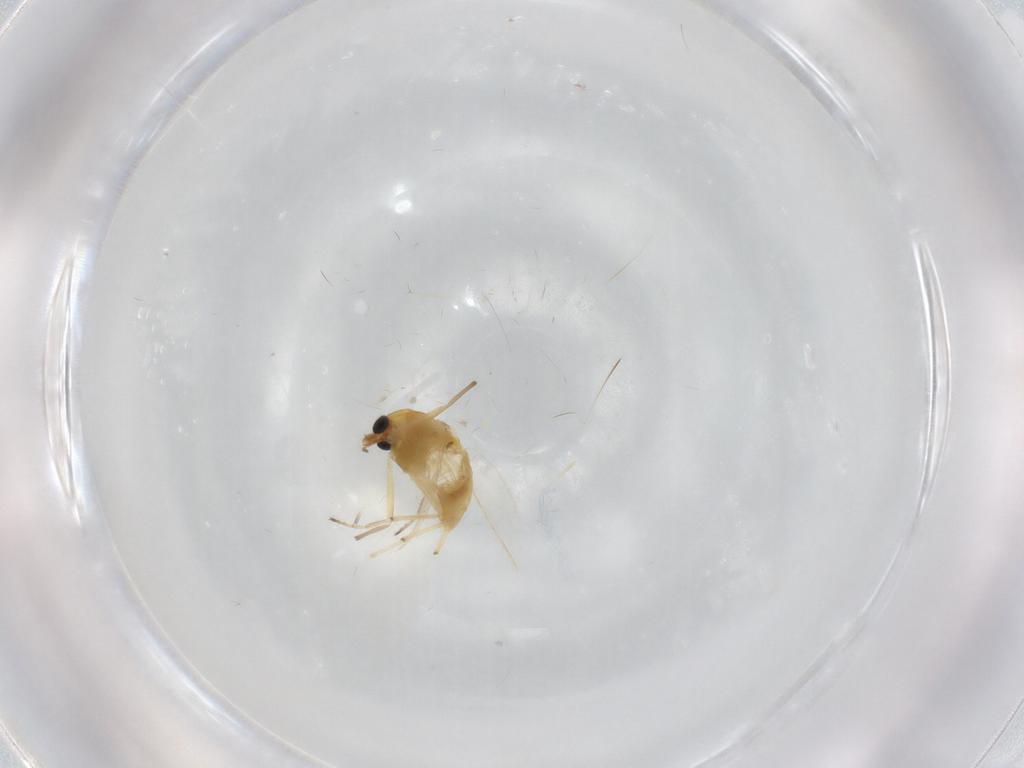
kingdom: Animalia
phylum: Arthropoda
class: Insecta
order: Diptera
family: Chironomidae
